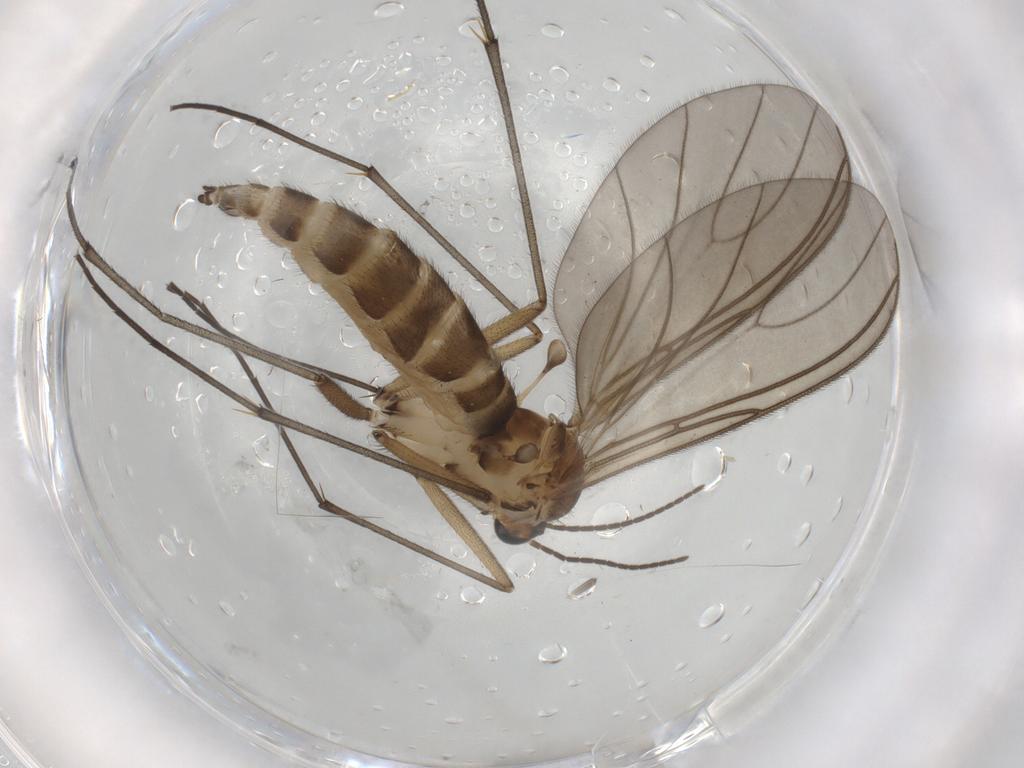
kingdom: Animalia
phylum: Arthropoda
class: Insecta
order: Diptera
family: Sciaridae
